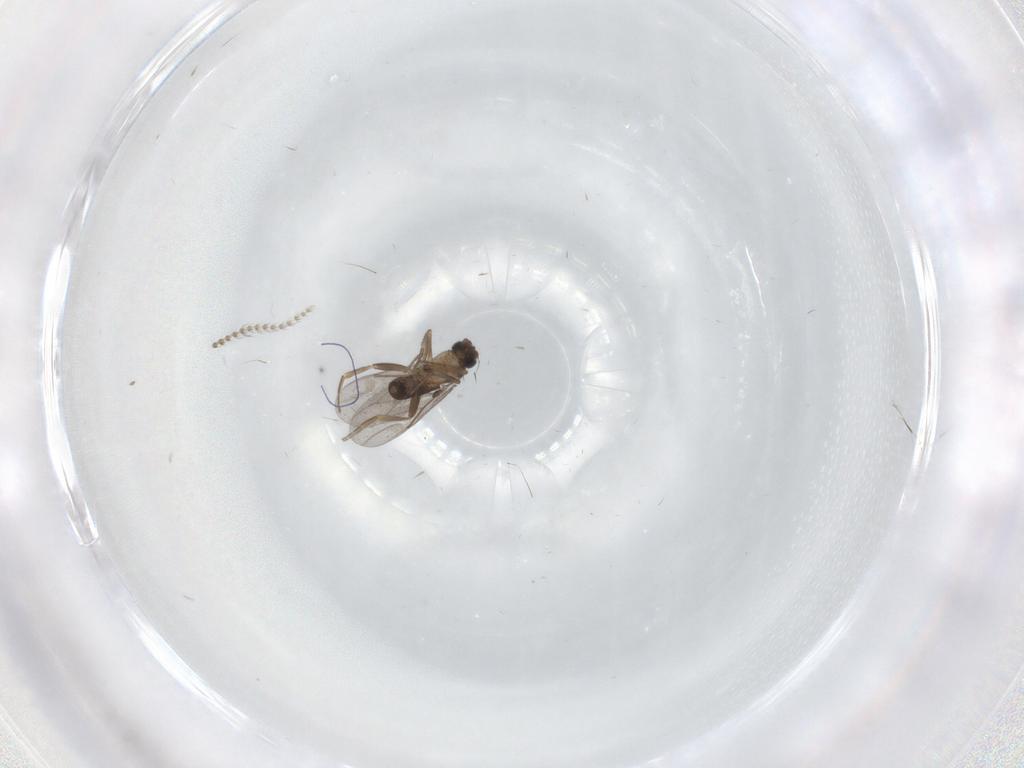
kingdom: Animalia
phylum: Arthropoda
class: Insecta
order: Diptera
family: Psychodidae
